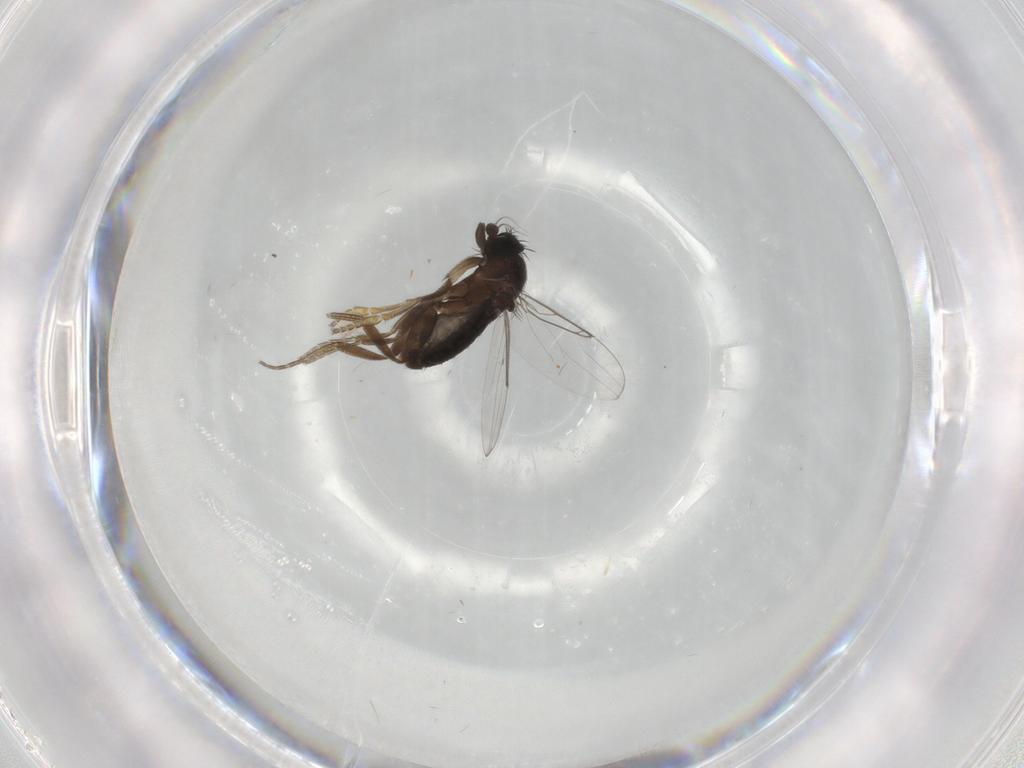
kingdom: Animalia
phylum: Arthropoda
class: Insecta
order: Diptera
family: Phoridae
